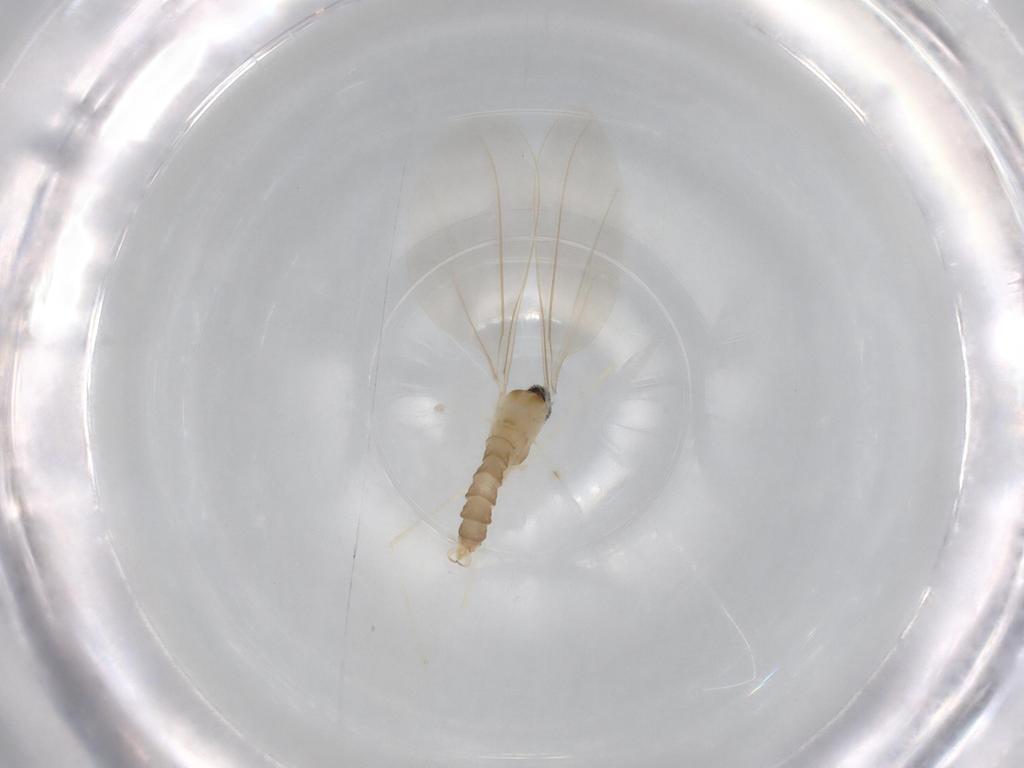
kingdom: Animalia
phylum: Arthropoda
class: Insecta
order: Diptera
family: Cecidomyiidae
